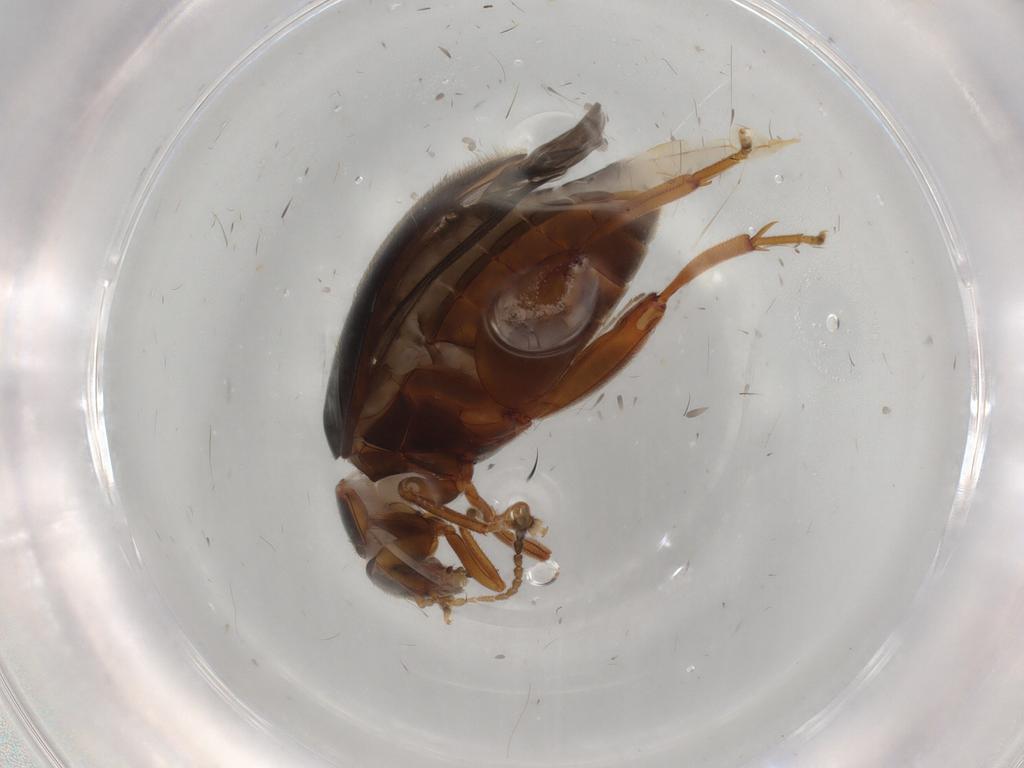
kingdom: Animalia
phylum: Arthropoda
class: Insecta
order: Coleoptera
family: Scirtidae
